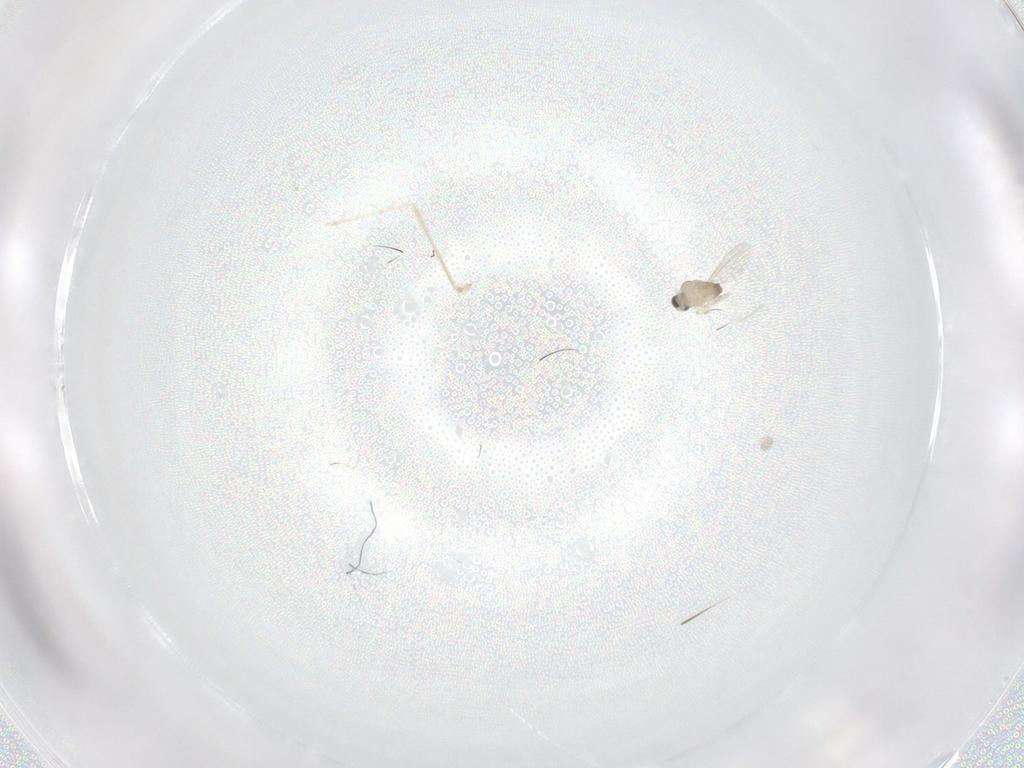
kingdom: Animalia
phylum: Arthropoda
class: Insecta
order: Diptera
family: Cecidomyiidae
